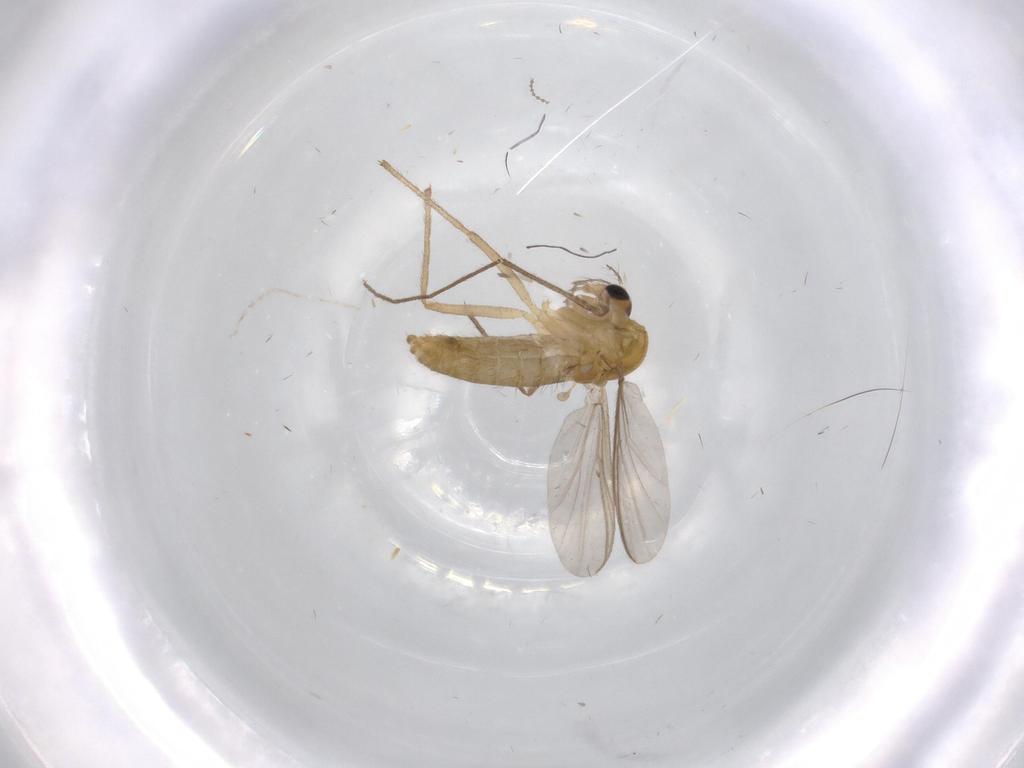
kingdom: Animalia
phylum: Arthropoda
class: Insecta
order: Diptera
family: Chironomidae
